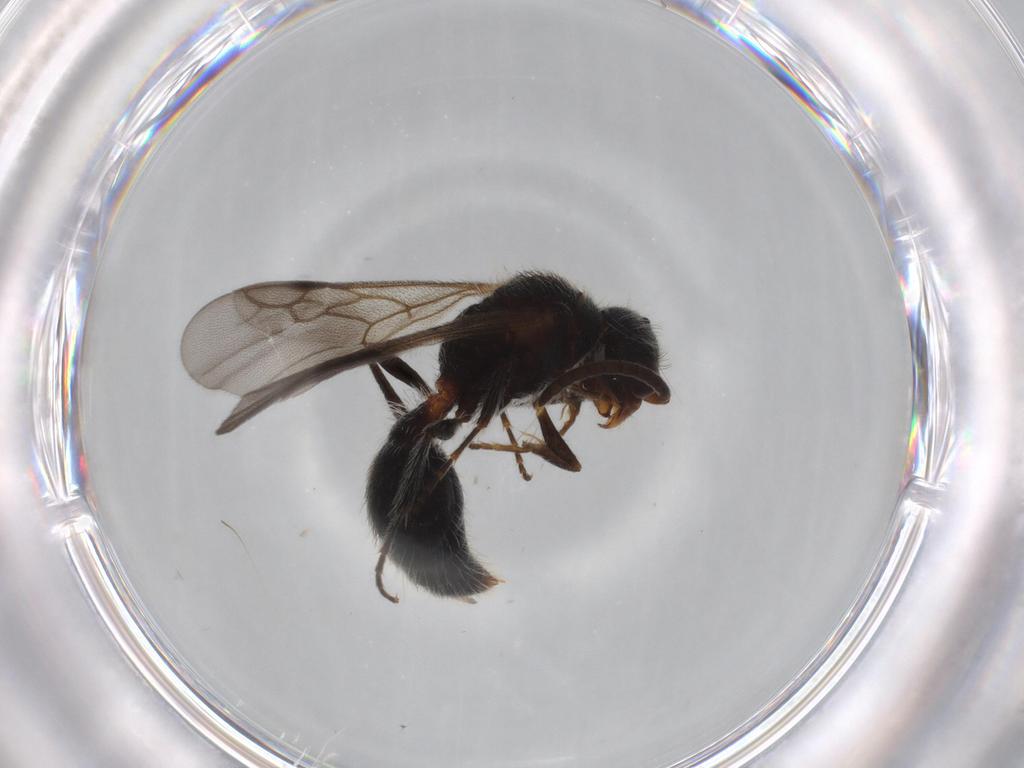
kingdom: Animalia
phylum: Arthropoda
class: Insecta
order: Hymenoptera
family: Mutillidae
